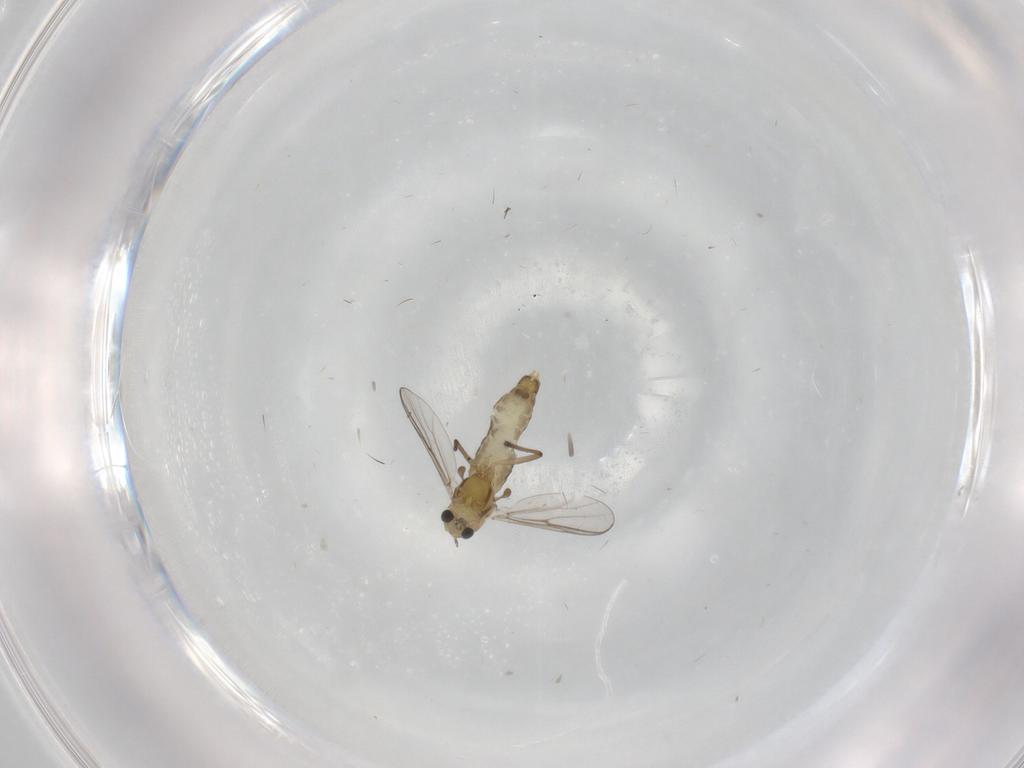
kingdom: Animalia
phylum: Arthropoda
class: Insecta
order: Diptera
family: Chironomidae
